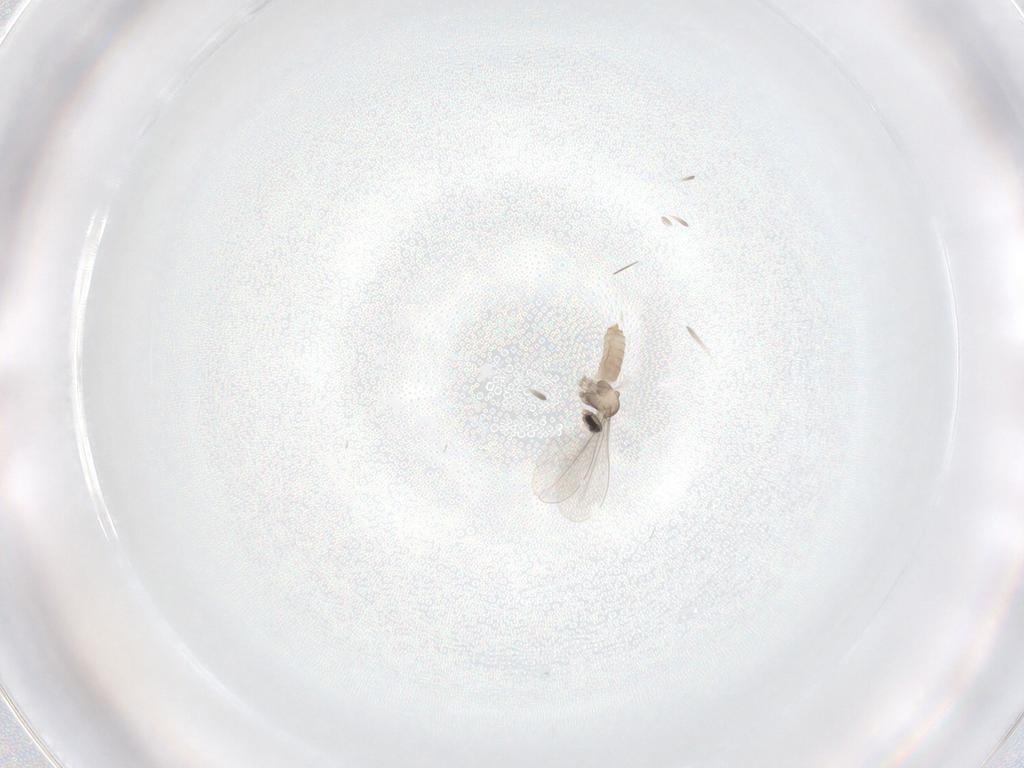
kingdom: Animalia
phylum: Arthropoda
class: Insecta
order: Diptera
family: Cecidomyiidae
